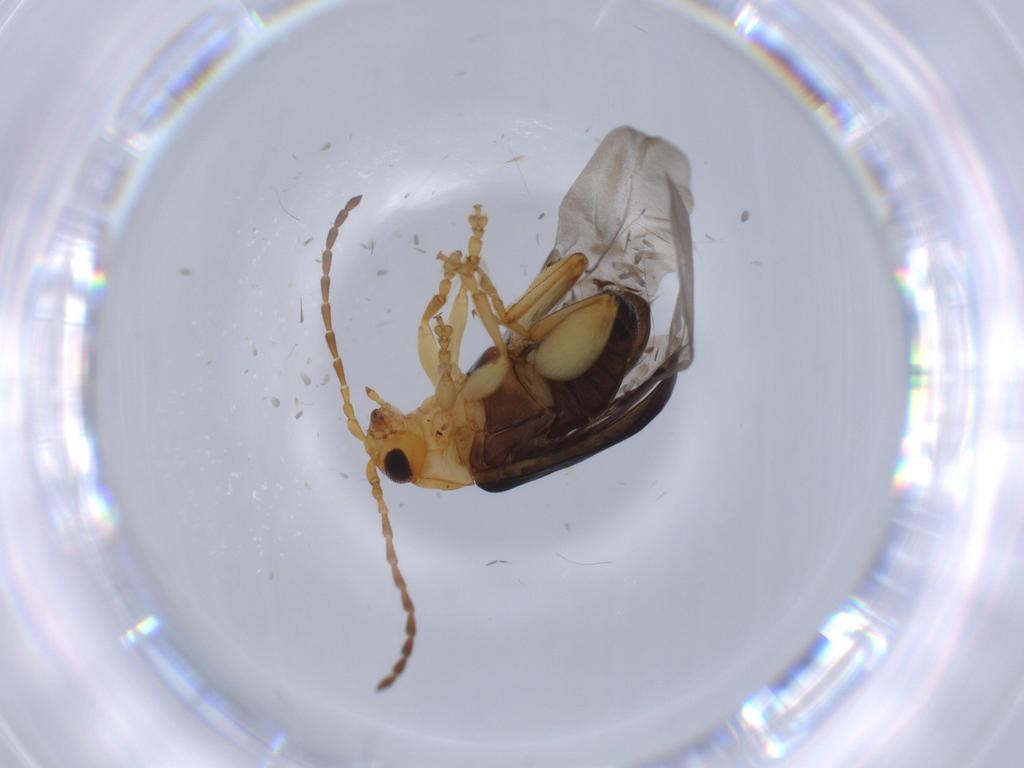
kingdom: Animalia
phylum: Arthropoda
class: Insecta
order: Coleoptera
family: Chrysomelidae
